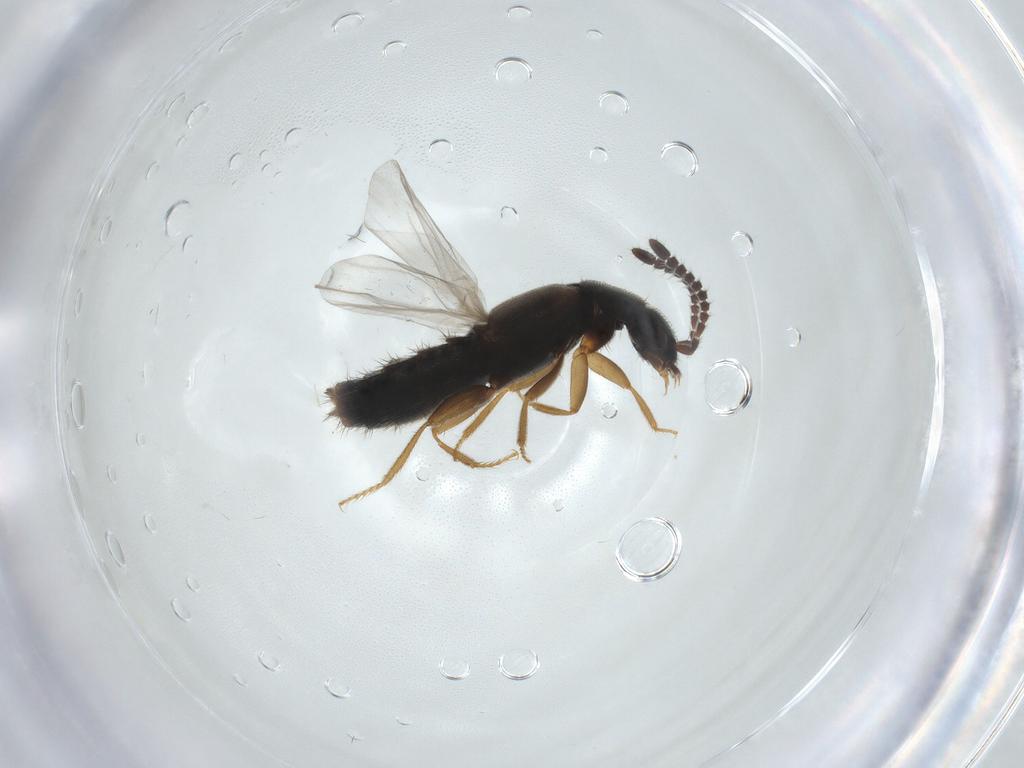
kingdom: Animalia
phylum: Arthropoda
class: Insecta
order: Coleoptera
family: Staphylinidae
